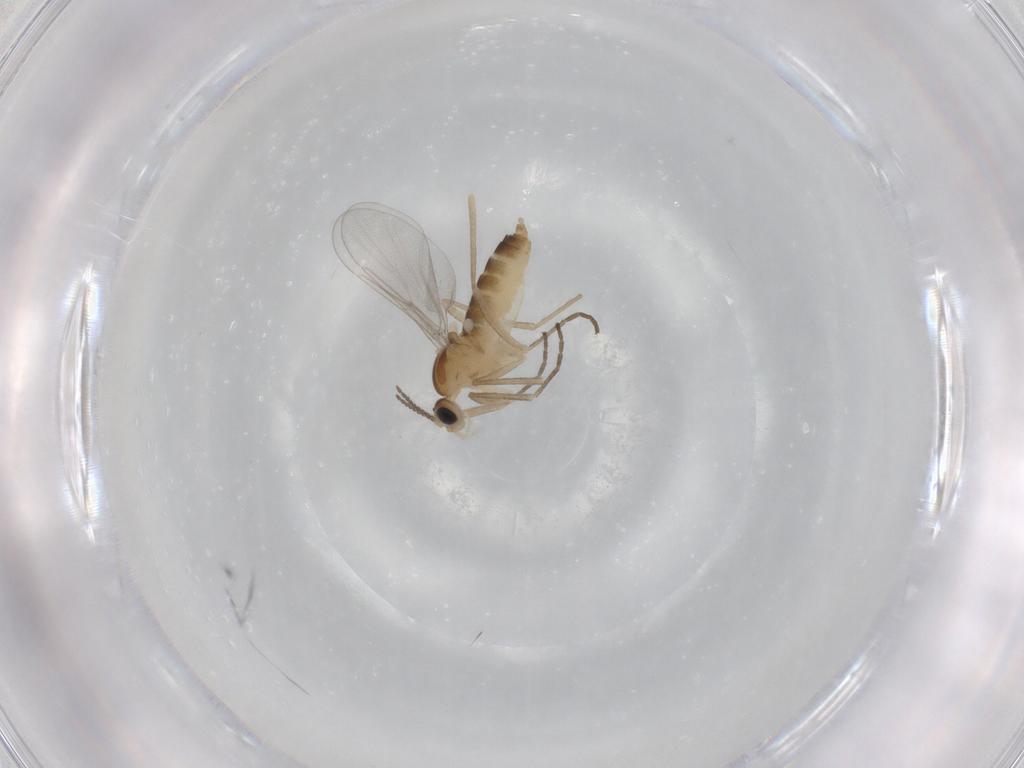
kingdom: Animalia
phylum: Arthropoda
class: Insecta
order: Diptera
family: Cecidomyiidae
